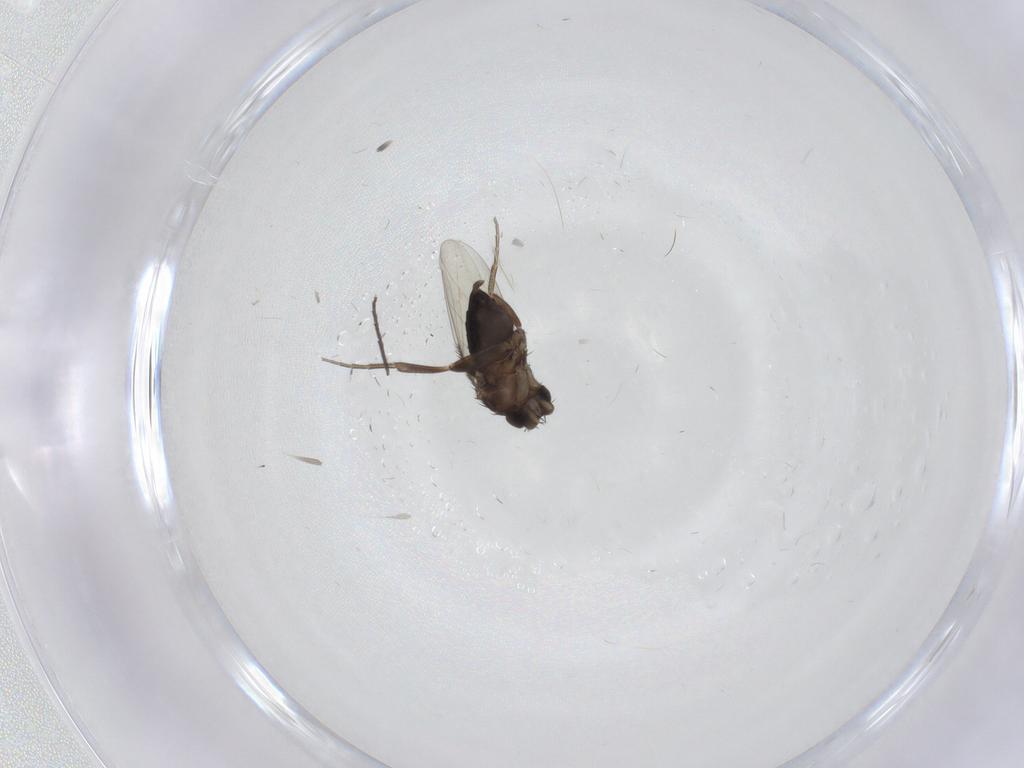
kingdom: Animalia
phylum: Arthropoda
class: Insecta
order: Diptera
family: Phoridae
